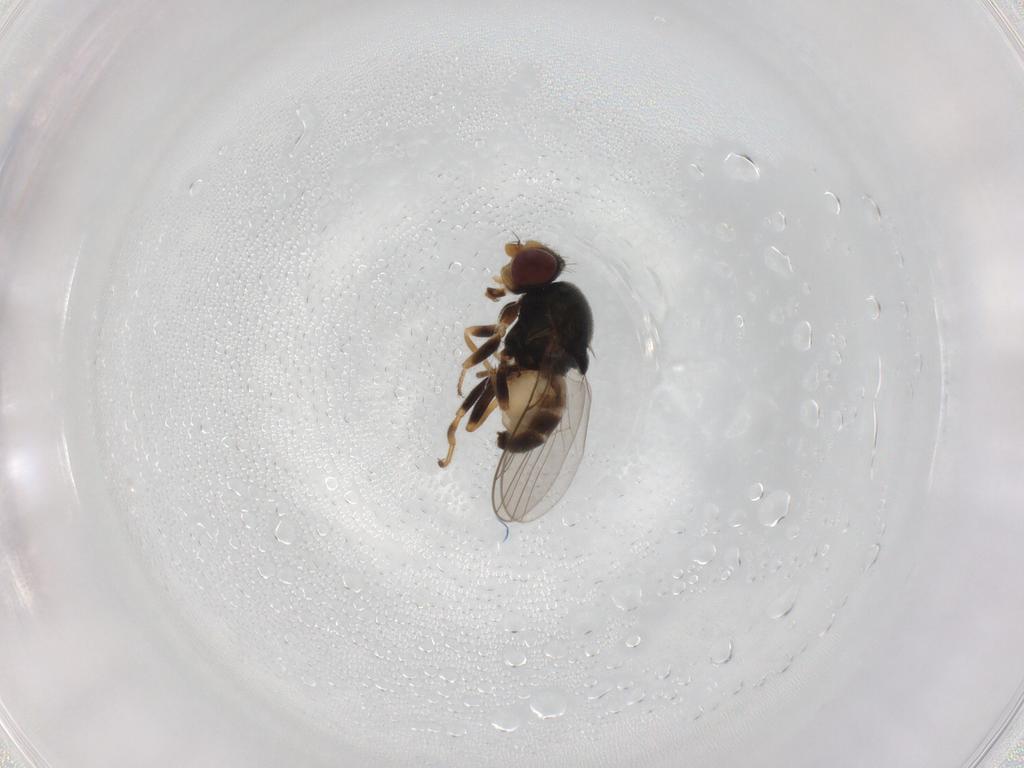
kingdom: Animalia
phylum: Arthropoda
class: Insecta
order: Diptera
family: Chloropidae
